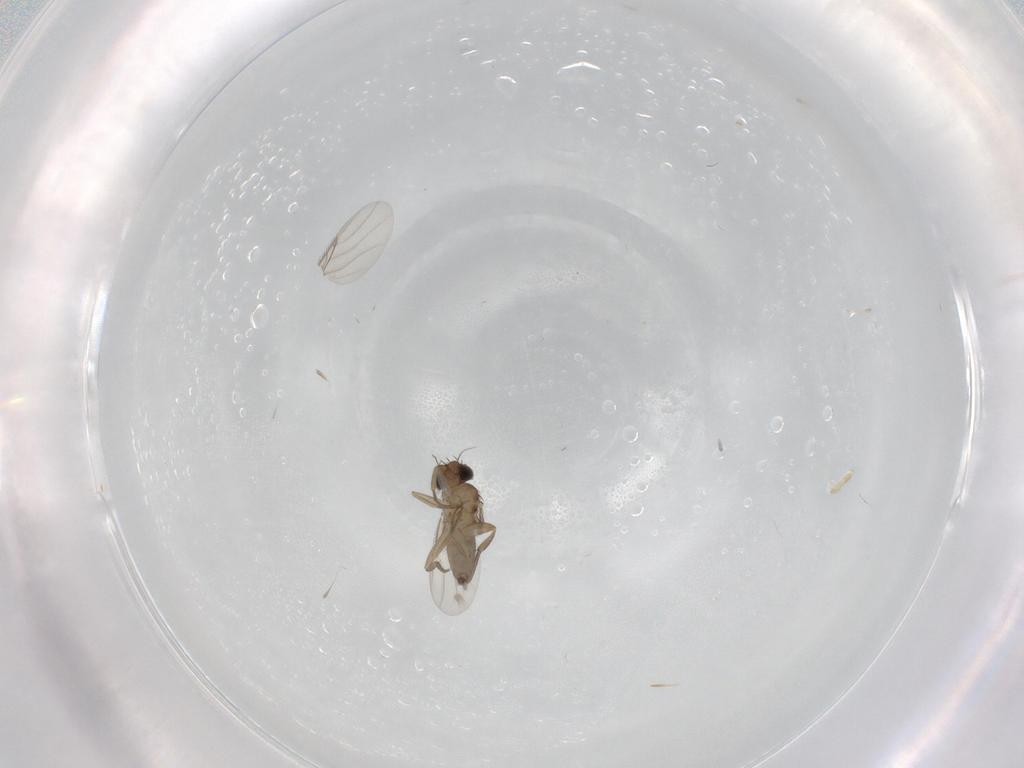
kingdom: Animalia
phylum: Arthropoda
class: Insecta
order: Diptera
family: Phoridae
